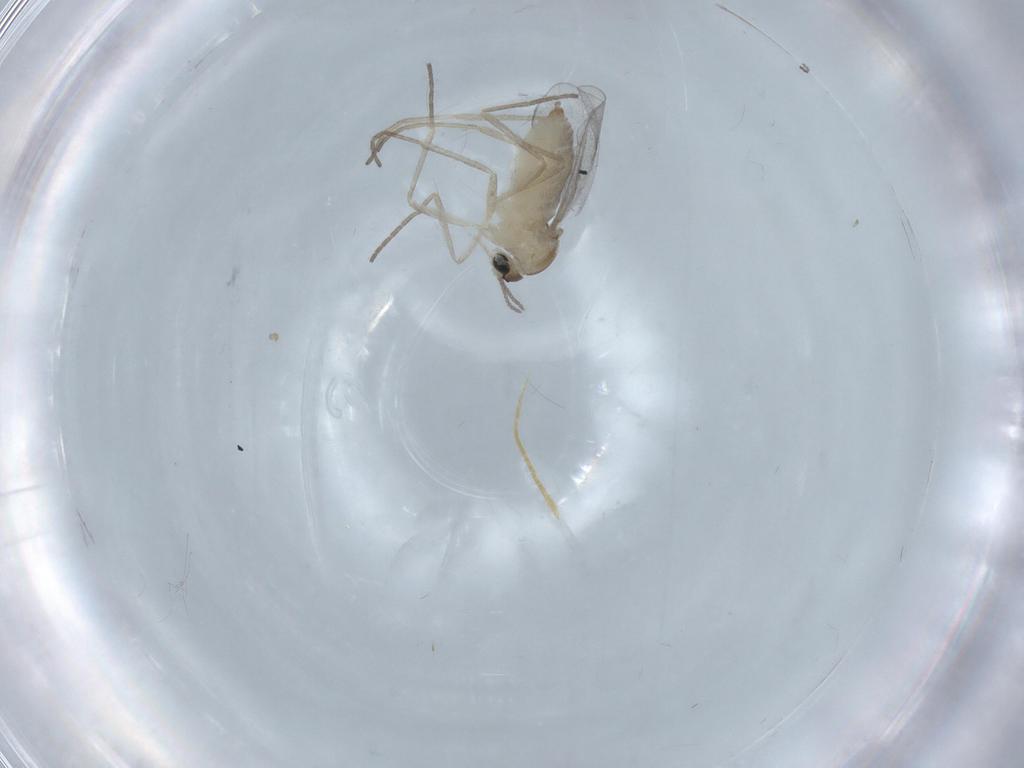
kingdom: Animalia
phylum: Arthropoda
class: Insecta
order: Diptera
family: Cecidomyiidae
